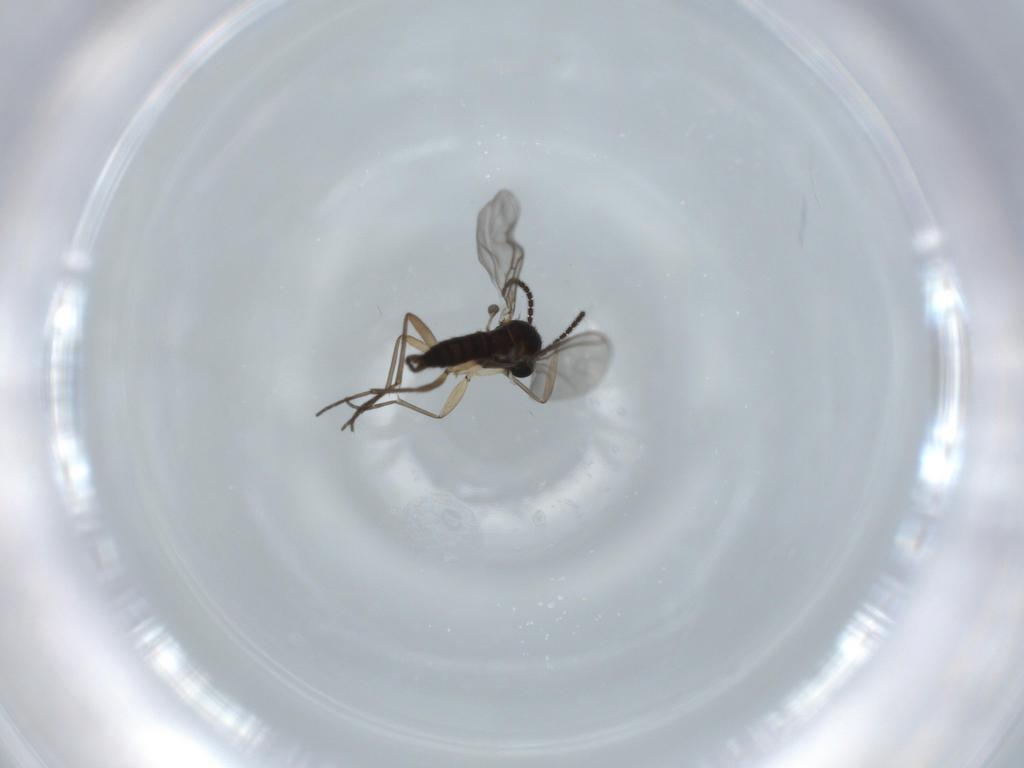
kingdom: Animalia
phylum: Arthropoda
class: Insecta
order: Diptera
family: Sciaridae
